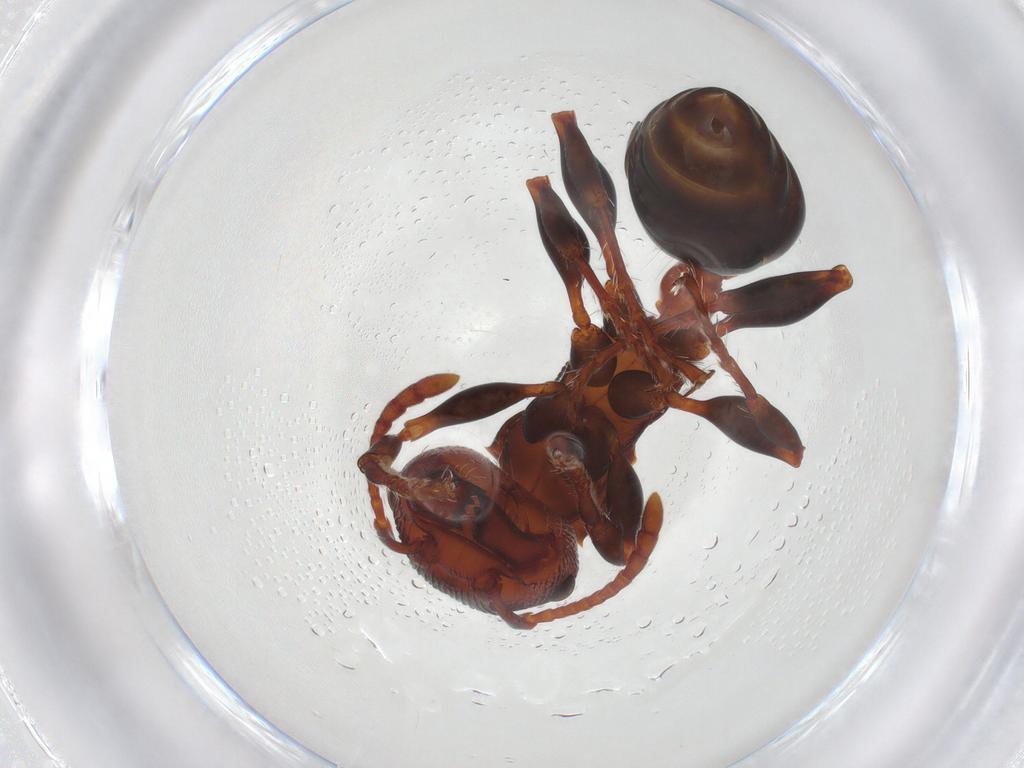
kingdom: Animalia
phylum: Arthropoda
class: Insecta
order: Hymenoptera
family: Formicidae
